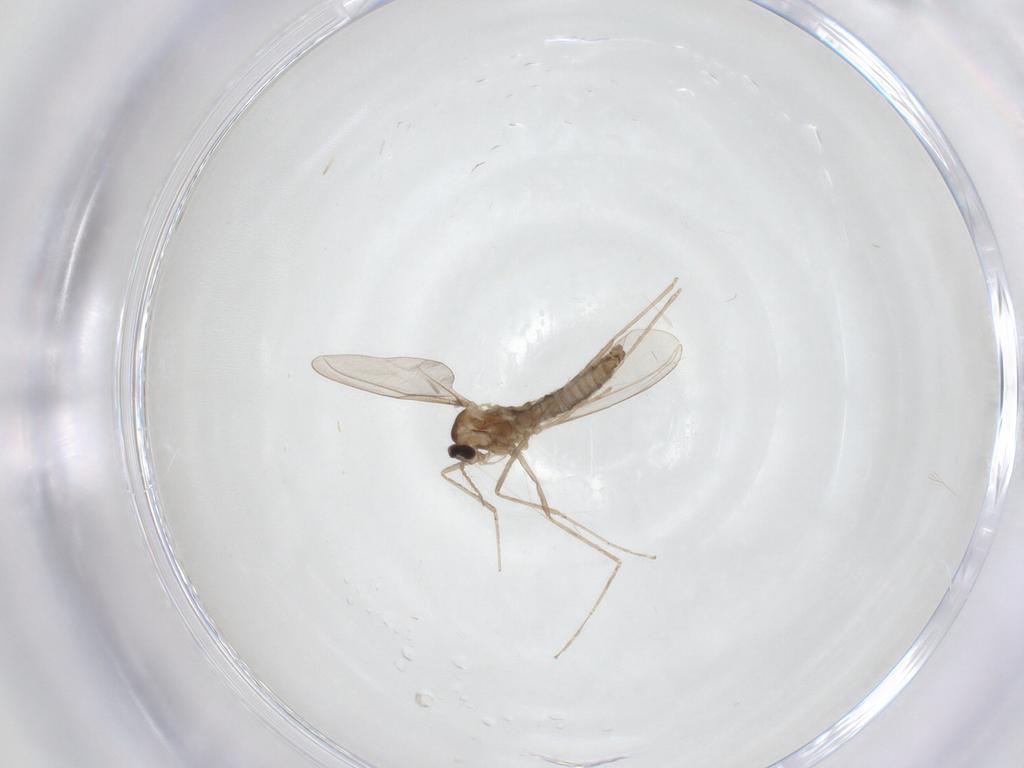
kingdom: Animalia
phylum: Arthropoda
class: Insecta
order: Diptera
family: Cecidomyiidae
